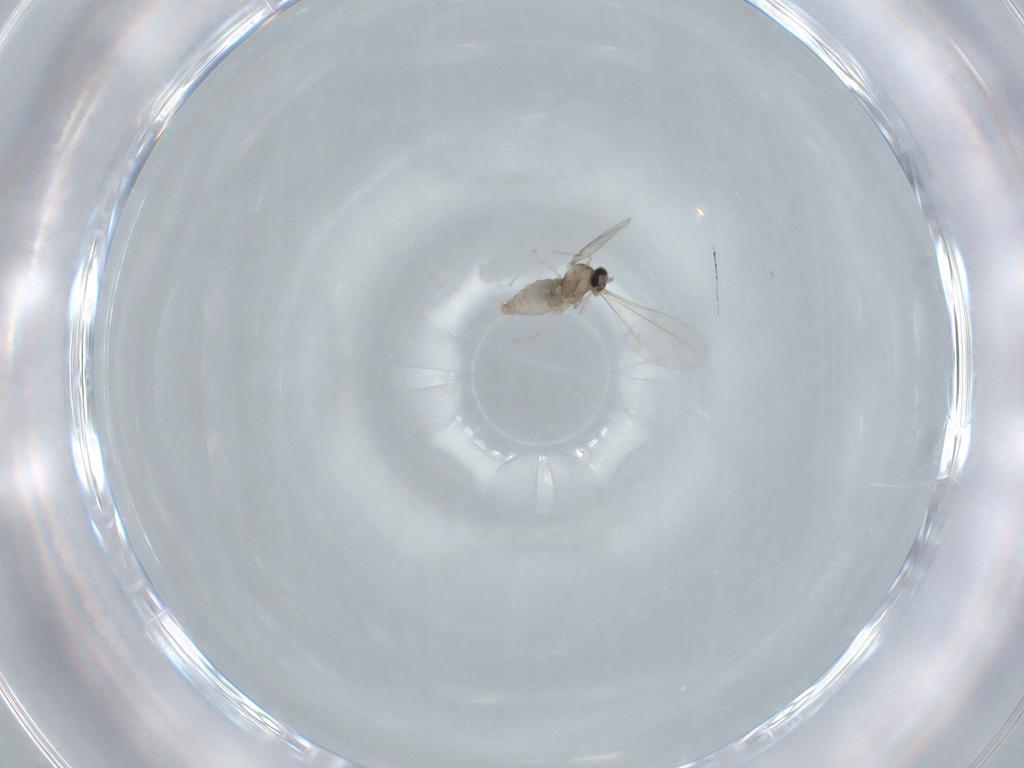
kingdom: Animalia
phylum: Arthropoda
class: Insecta
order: Diptera
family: Cecidomyiidae
